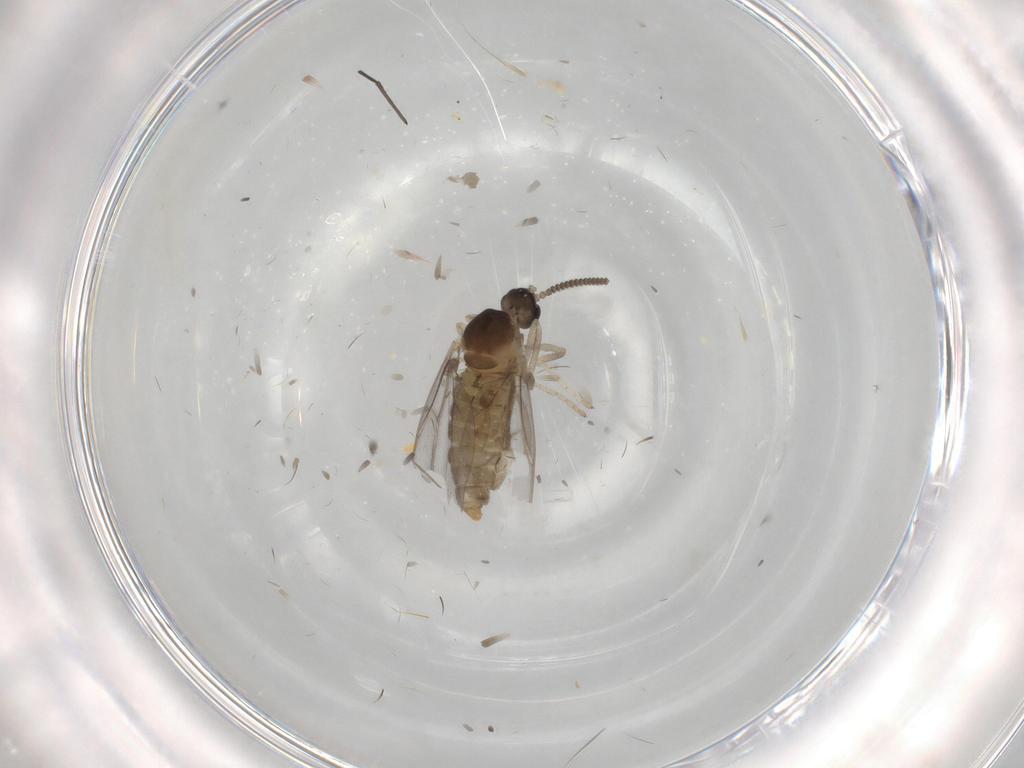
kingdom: Animalia
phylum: Arthropoda
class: Insecta
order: Diptera
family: Cecidomyiidae
